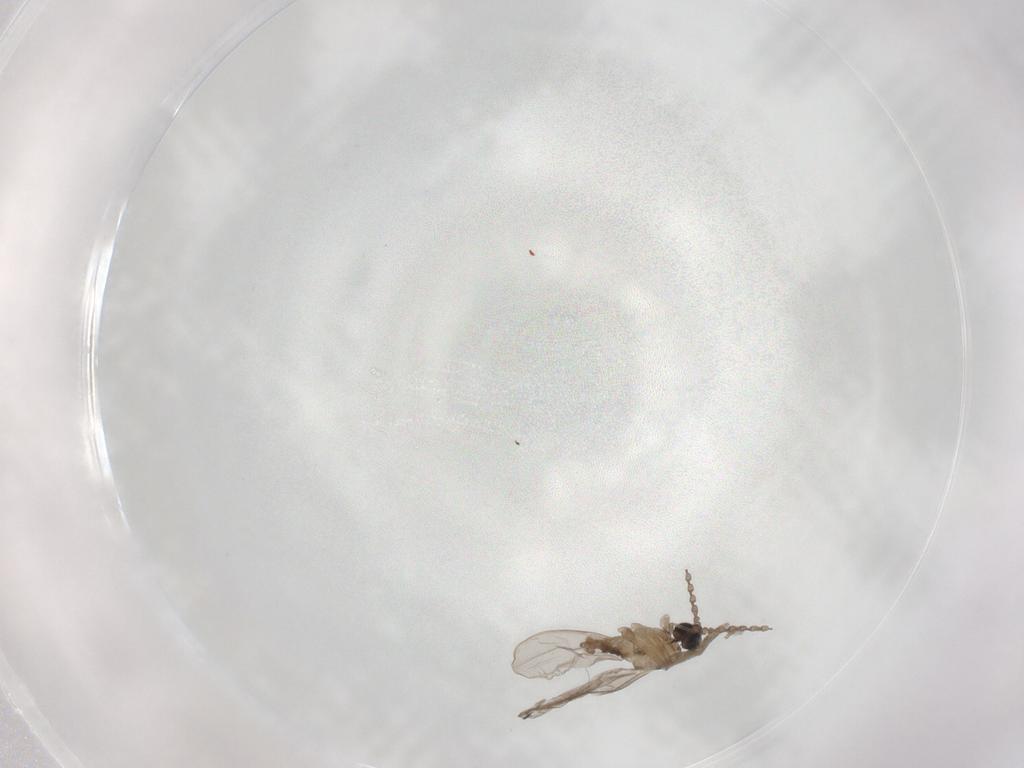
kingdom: Animalia
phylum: Arthropoda
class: Insecta
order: Diptera
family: Phoridae
